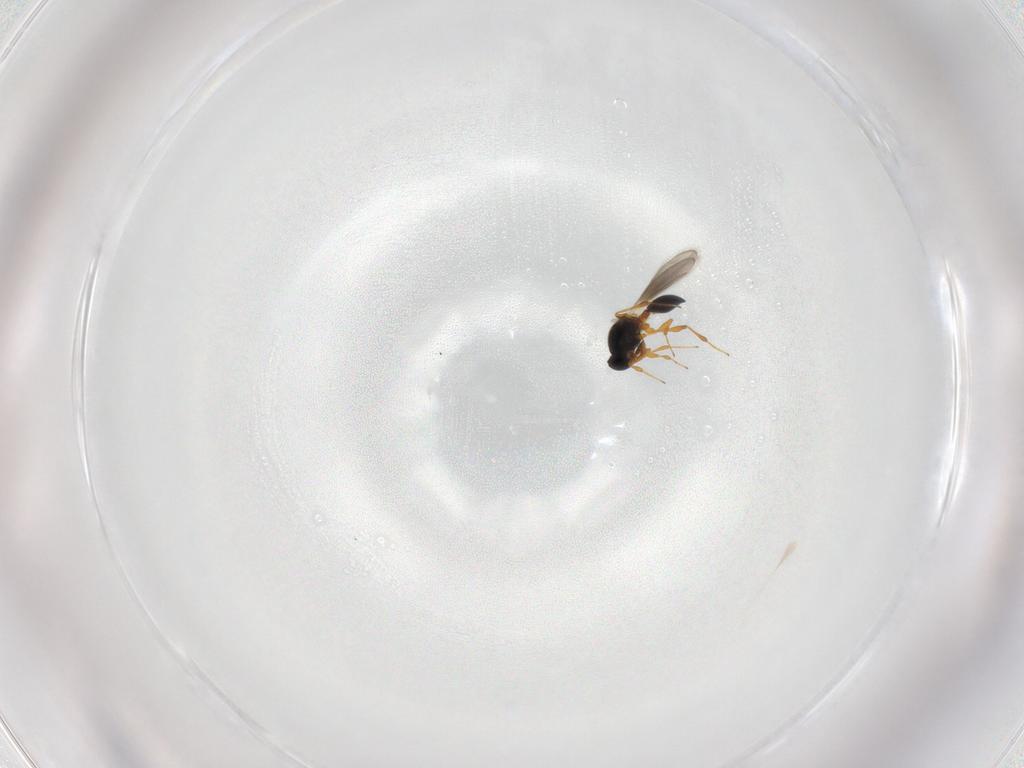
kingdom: Animalia
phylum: Arthropoda
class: Insecta
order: Hymenoptera
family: Platygastridae
